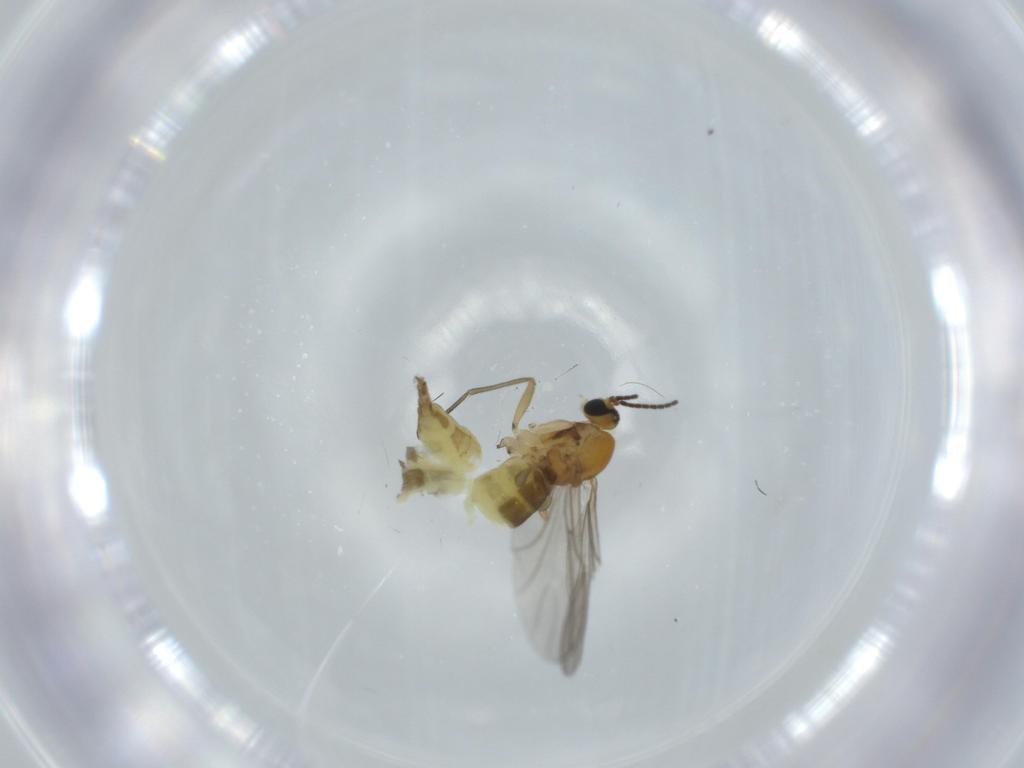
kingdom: Animalia
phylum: Arthropoda
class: Insecta
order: Diptera
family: Sciaridae
